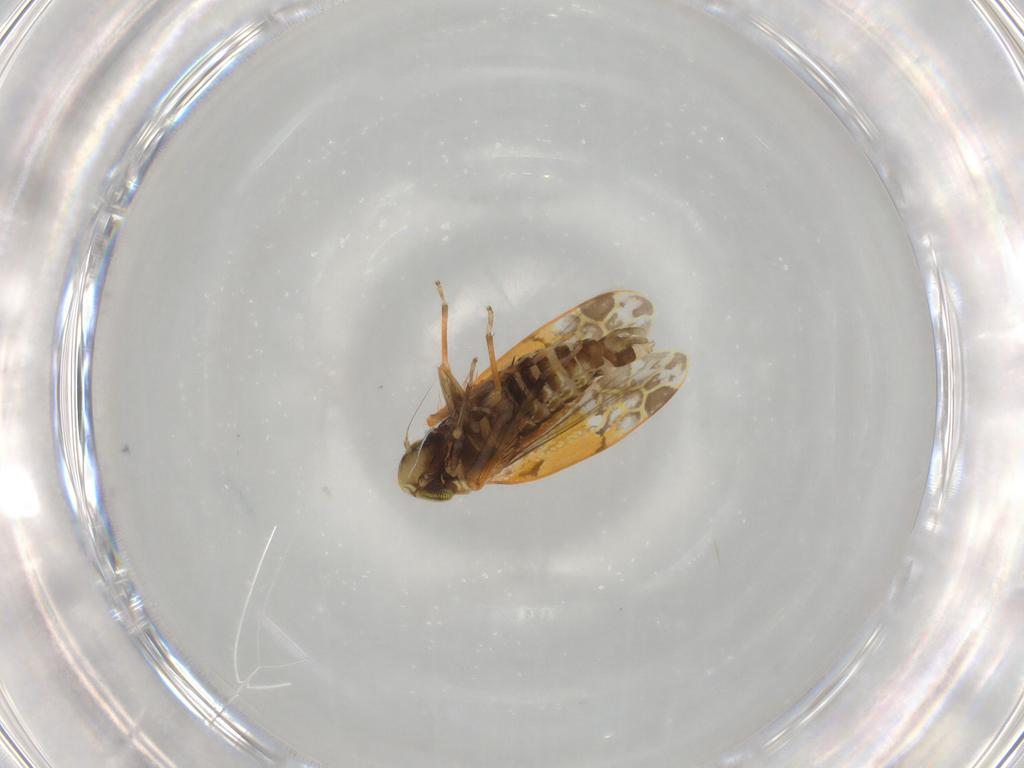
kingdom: Animalia
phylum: Arthropoda
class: Insecta
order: Hemiptera
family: Cicadellidae
